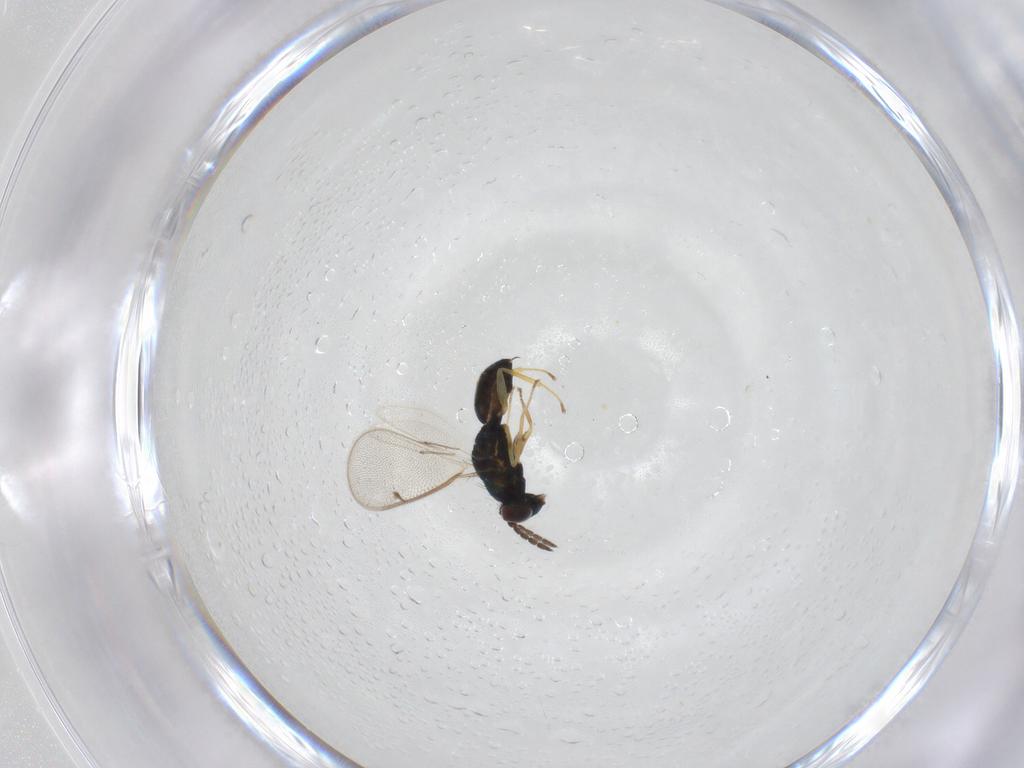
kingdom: Animalia
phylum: Arthropoda
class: Insecta
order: Hymenoptera
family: Eulophidae
